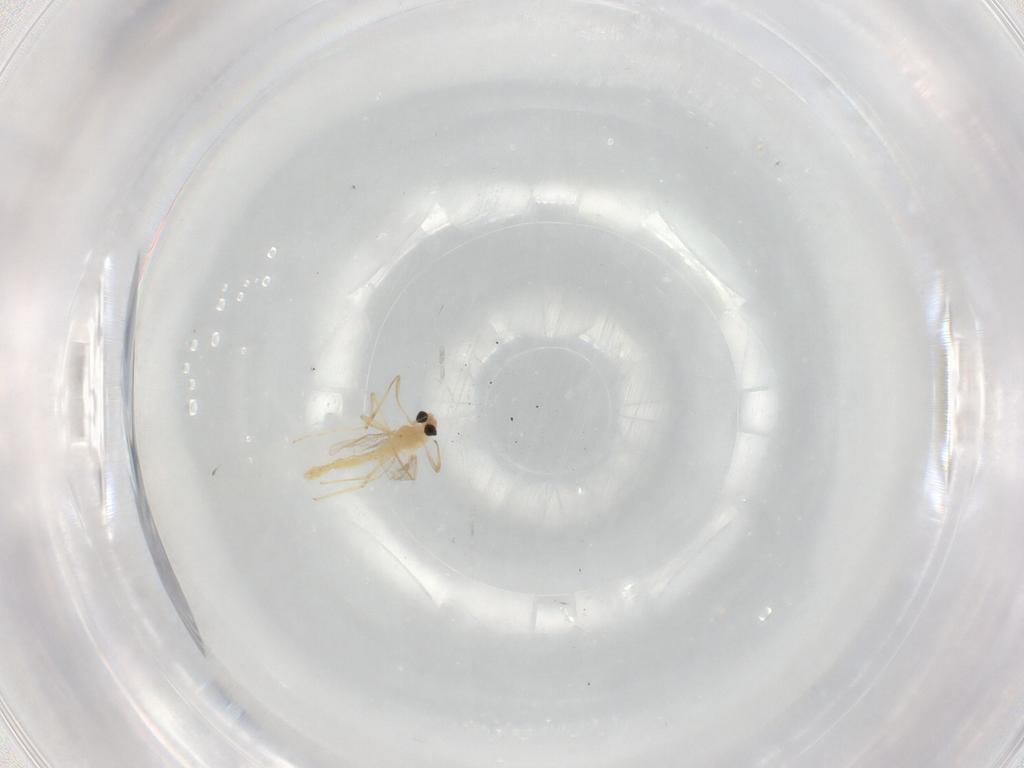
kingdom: Animalia
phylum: Arthropoda
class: Insecta
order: Diptera
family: Chironomidae
